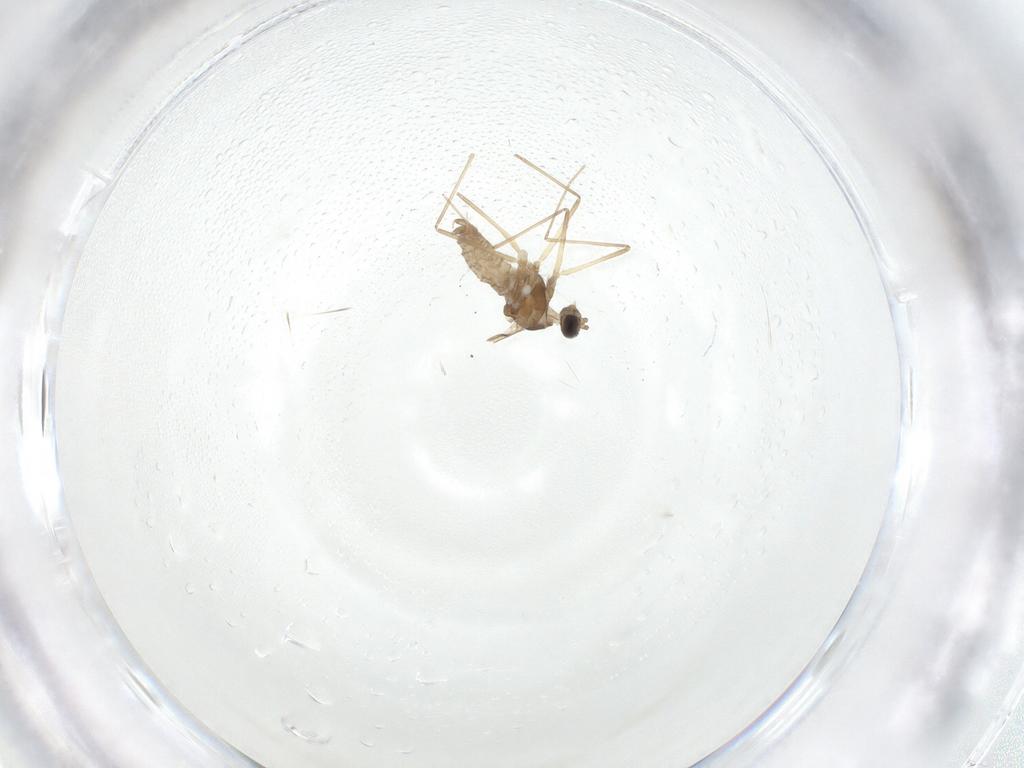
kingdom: Animalia
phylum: Arthropoda
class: Insecta
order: Diptera
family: Cecidomyiidae
